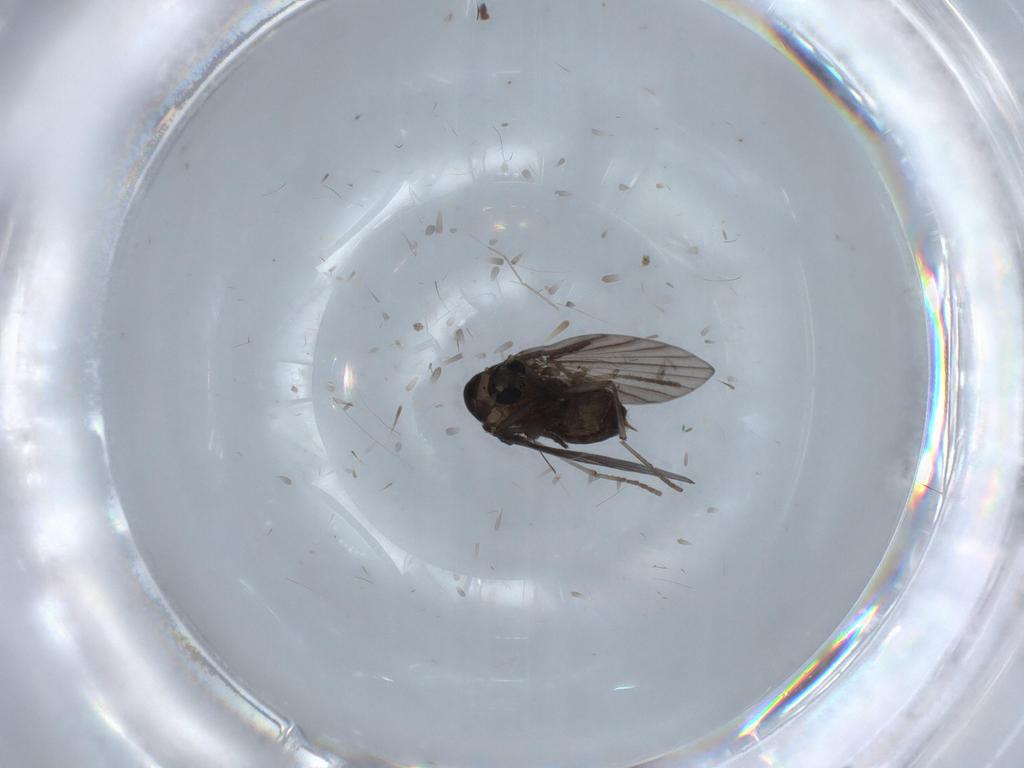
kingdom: Animalia
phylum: Arthropoda
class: Insecta
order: Diptera
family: Psychodidae
